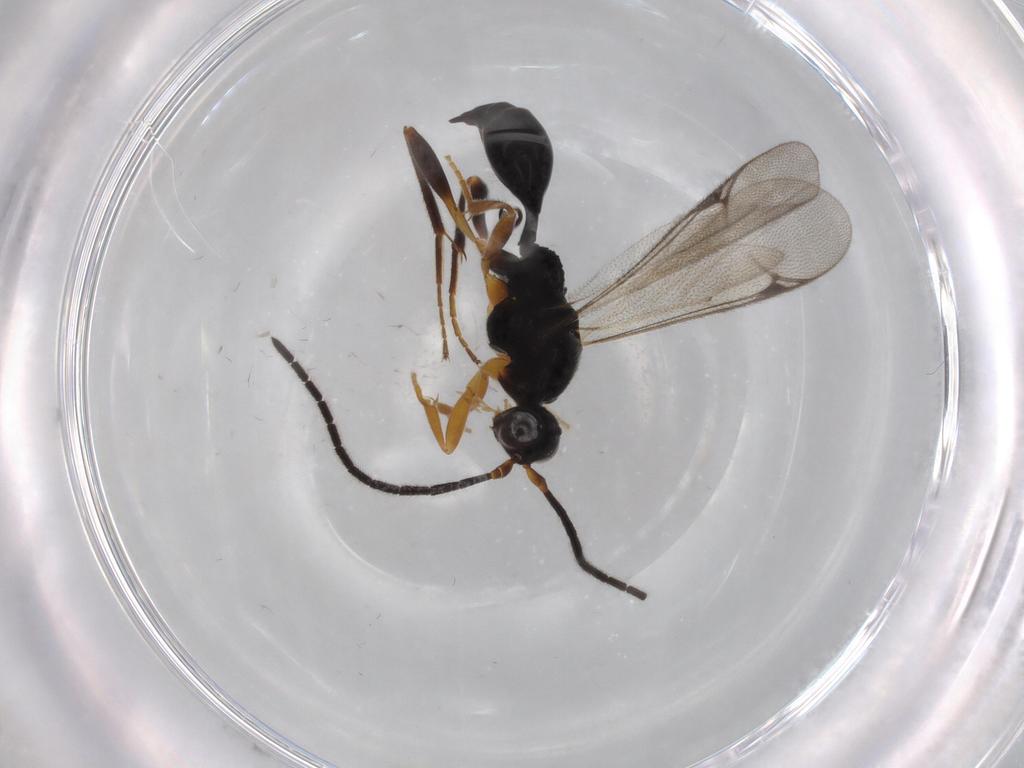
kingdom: Animalia
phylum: Arthropoda
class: Insecta
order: Hymenoptera
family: Proctotrupidae
